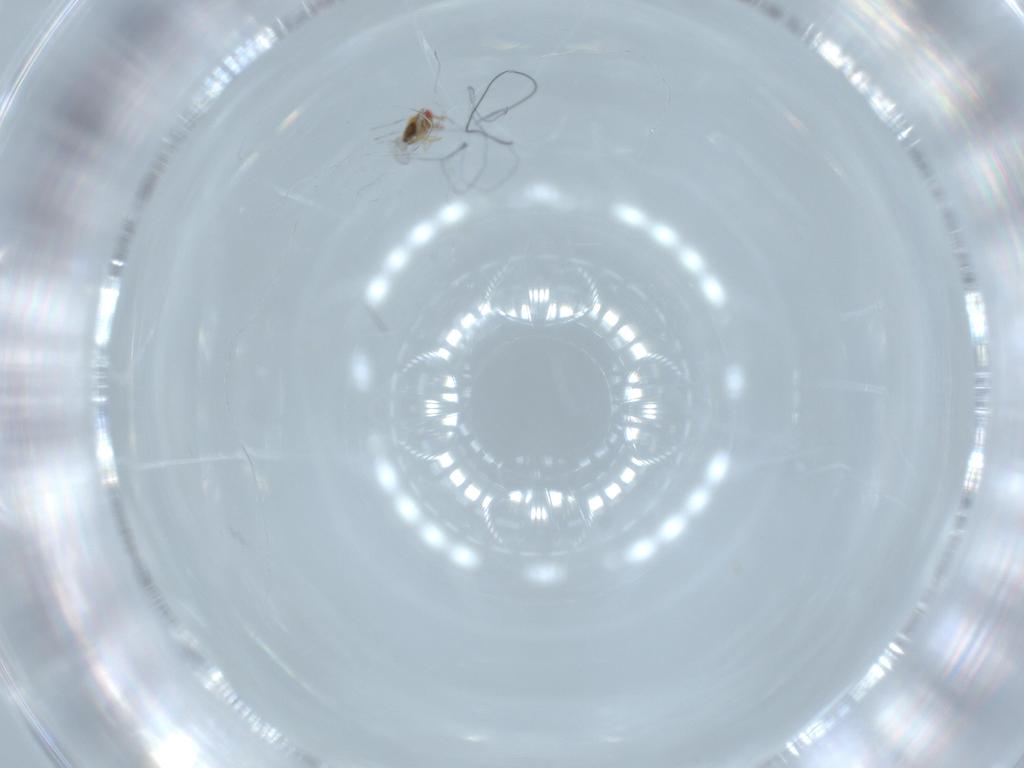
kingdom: Animalia
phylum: Arthropoda
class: Insecta
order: Hymenoptera
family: Trichogrammatidae
